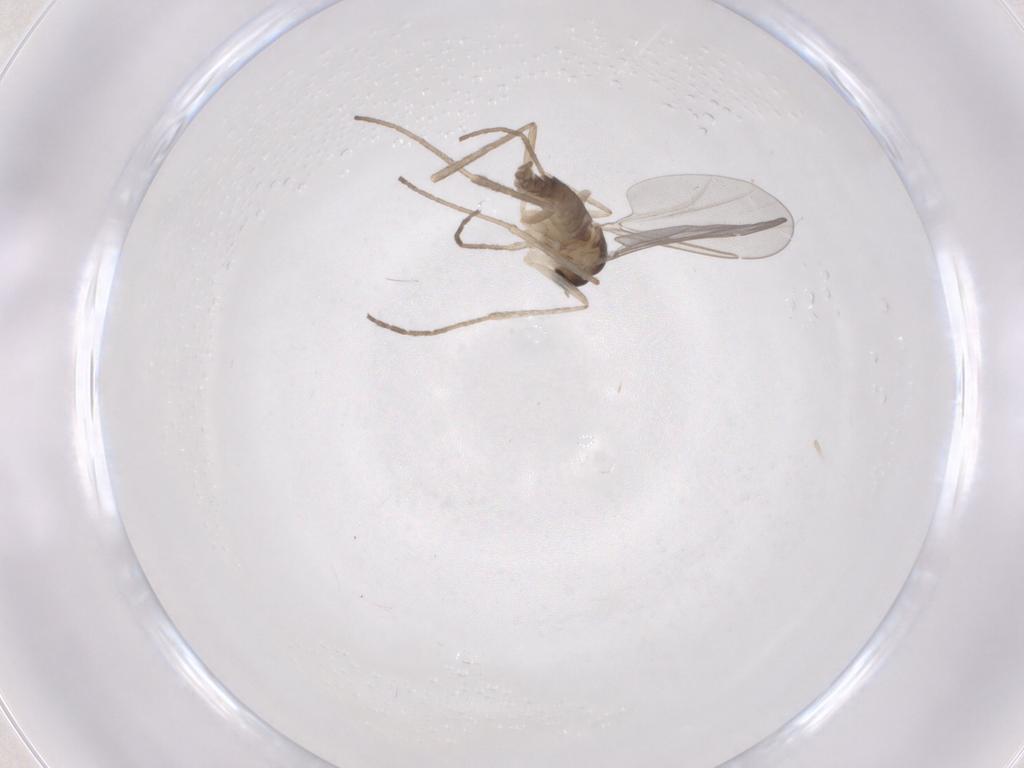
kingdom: Animalia
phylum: Arthropoda
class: Insecta
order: Diptera
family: Cecidomyiidae
